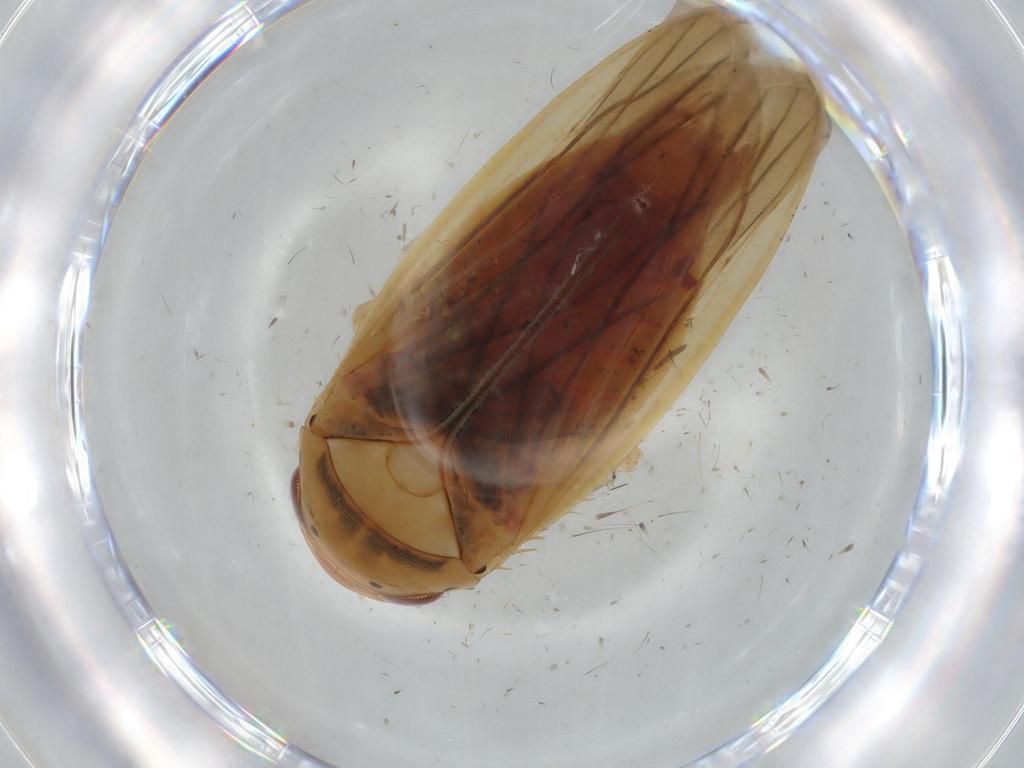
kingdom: Animalia
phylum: Arthropoda
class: Insecta
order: Hemiptera
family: Cicadellidae
